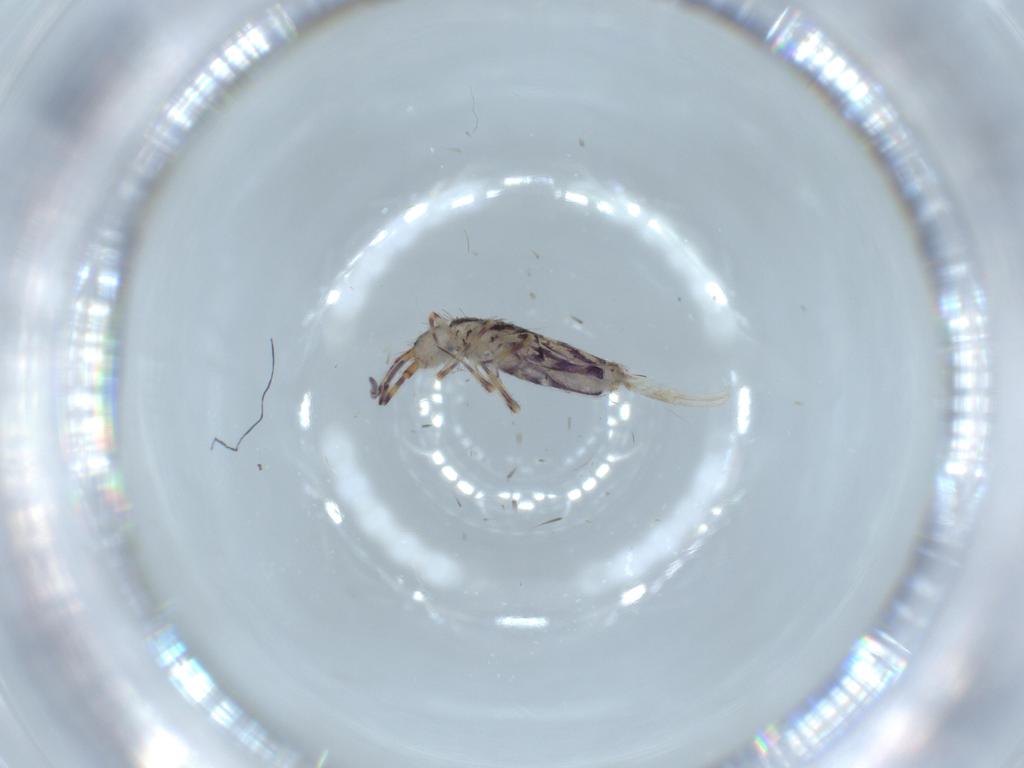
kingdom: Animalia
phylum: Arthropoda
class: Collembola
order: Entomobryomorpha
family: Entomobryidae
